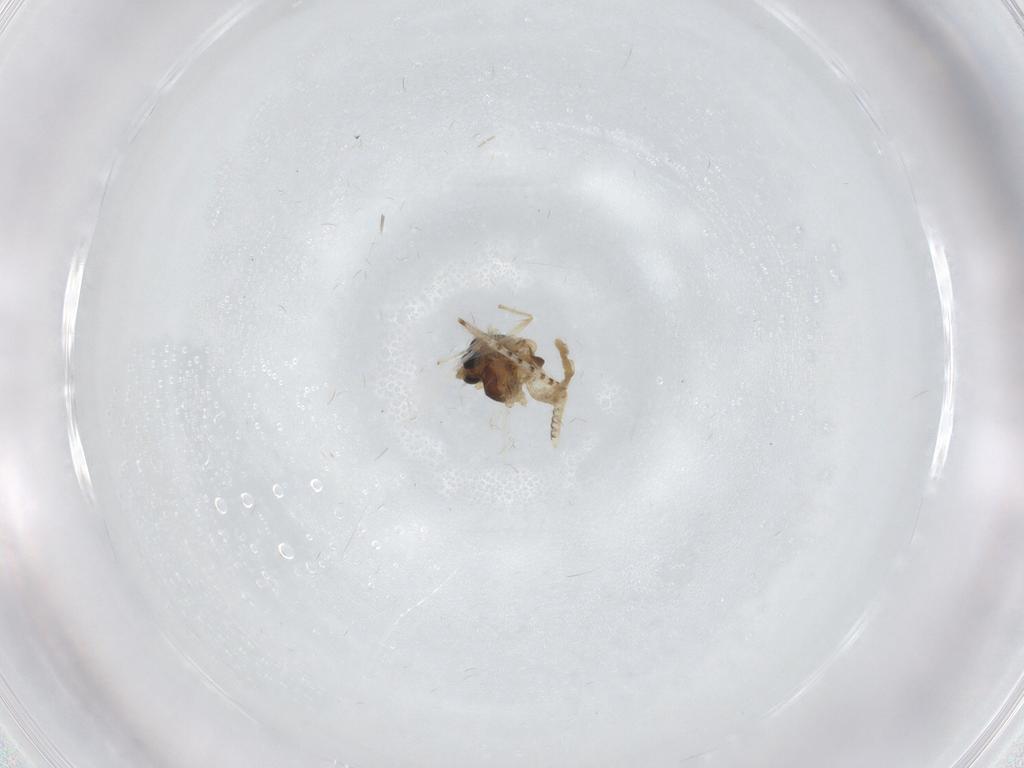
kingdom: Animalia
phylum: Arthropoda
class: Insecta
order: Diptera
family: Chironomidae
